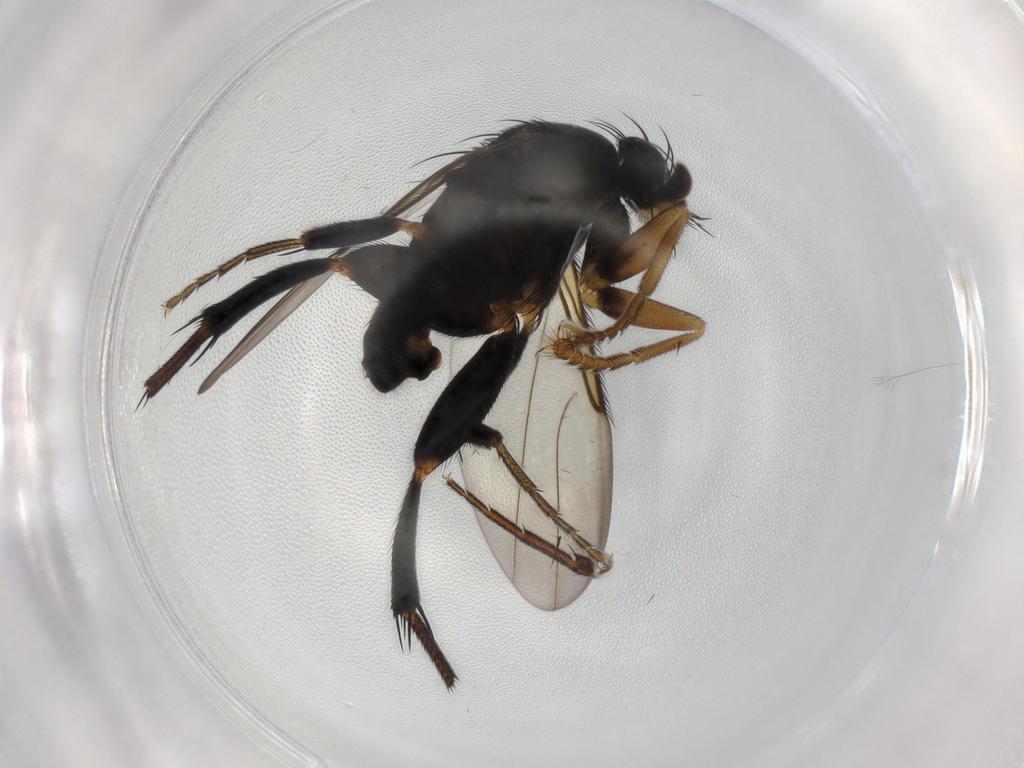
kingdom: Animalia
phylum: Arthropoda
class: Insecta
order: Diptera
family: Phoridae
